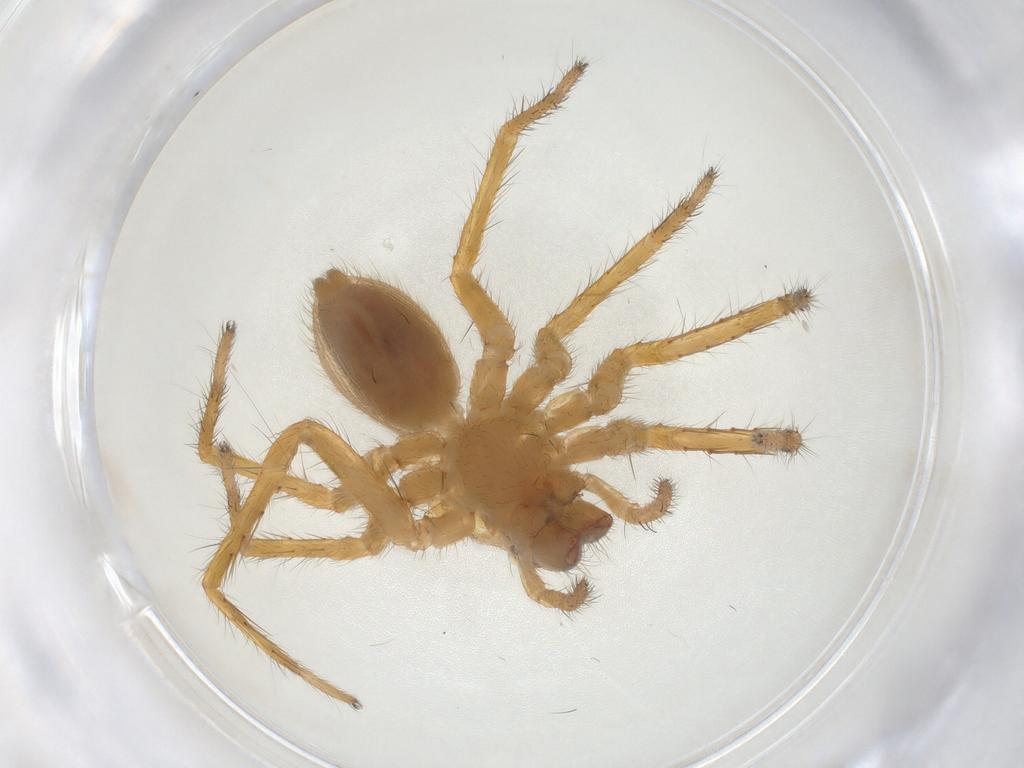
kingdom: Animalia
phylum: Arthropoda
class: Arachnida
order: Araneae
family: Trechaleidae
